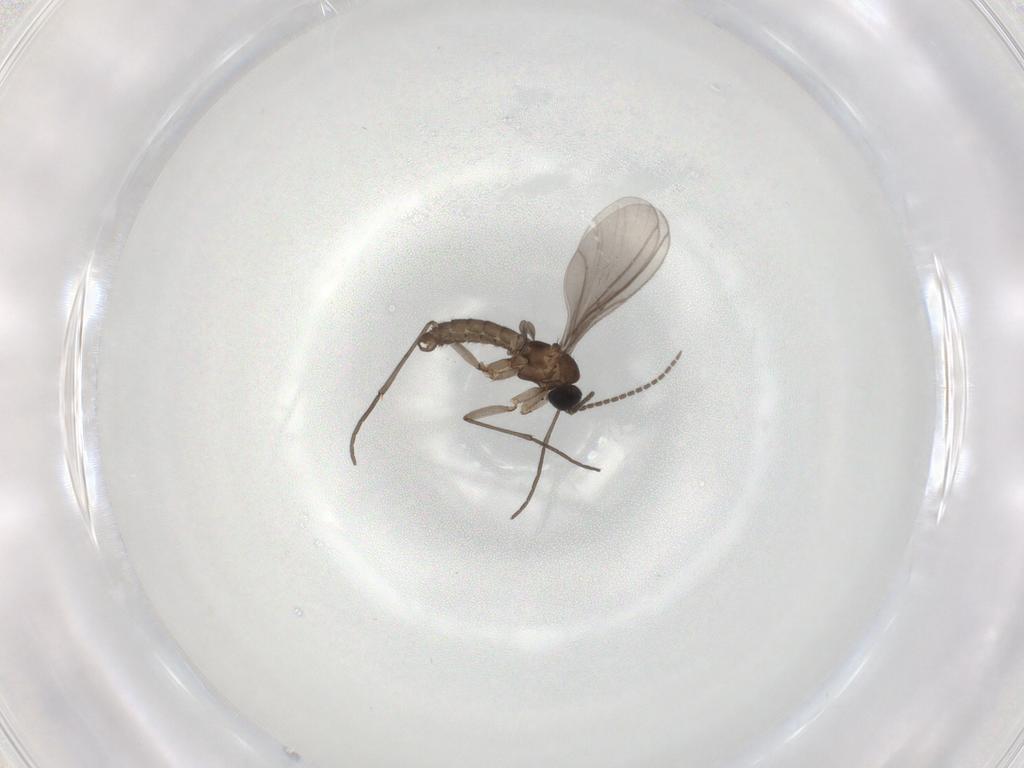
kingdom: Animalia
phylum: Arthropoda
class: Insecta
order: Diptera
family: Sciaridae
